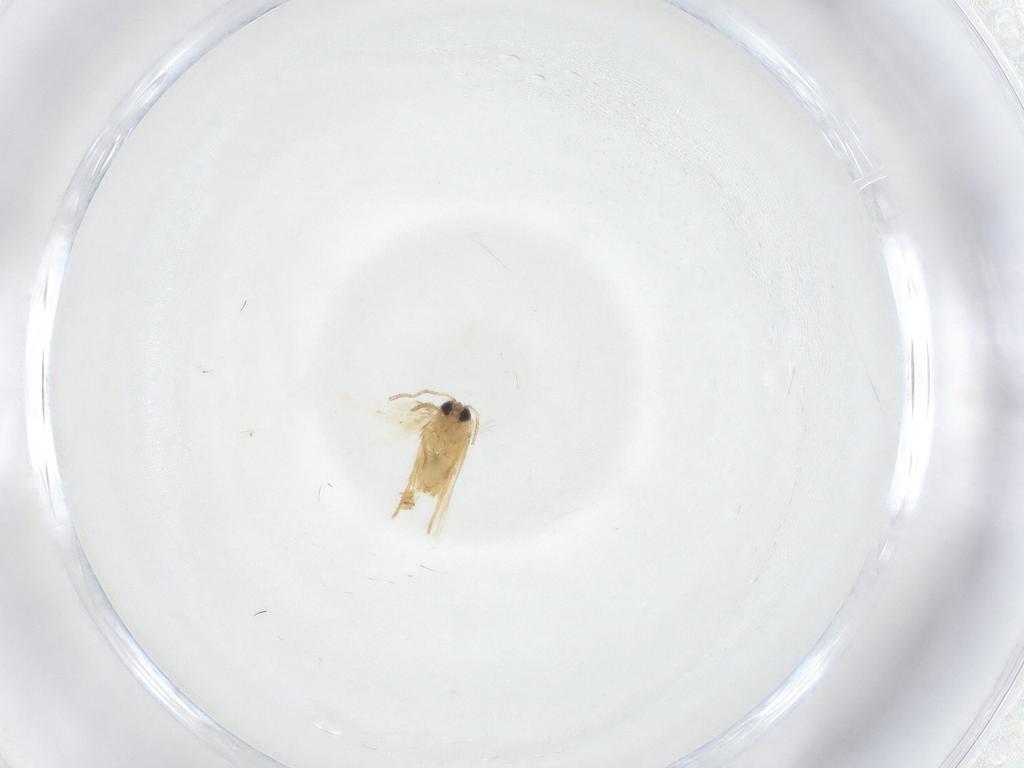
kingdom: Animalia
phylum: Arthropoda
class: Insecta
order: Lepidoptera
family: Crambidae
